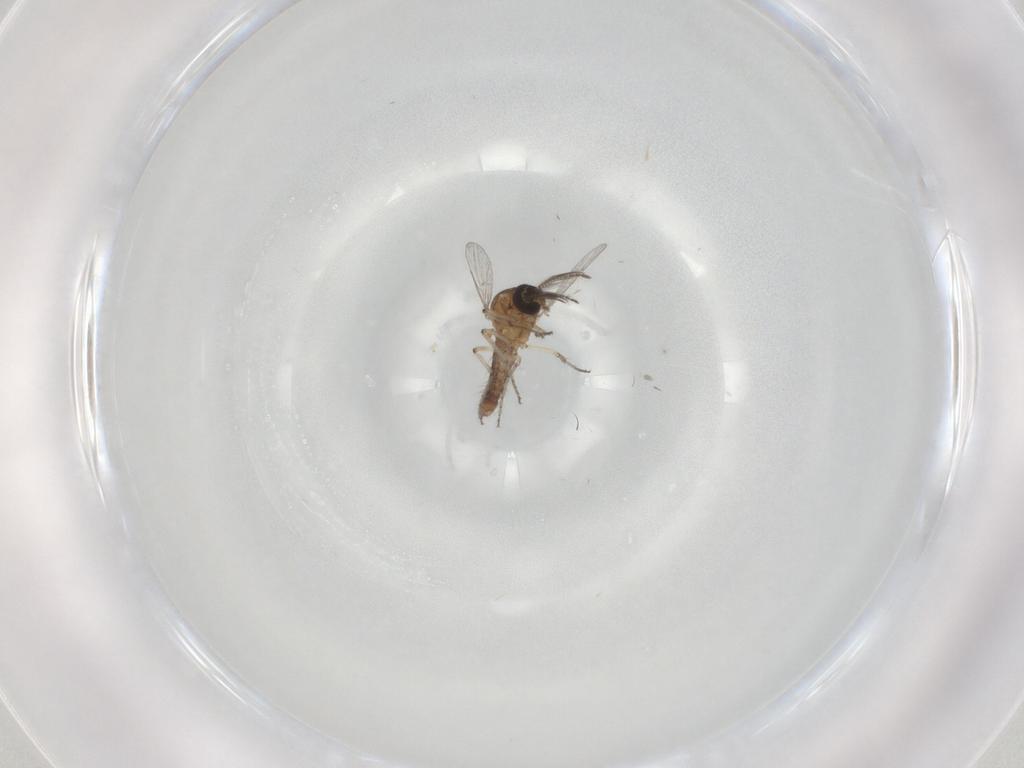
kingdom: Animalia
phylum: Arthropoda
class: Insecta
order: Diptera
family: Ceratopogonidae
